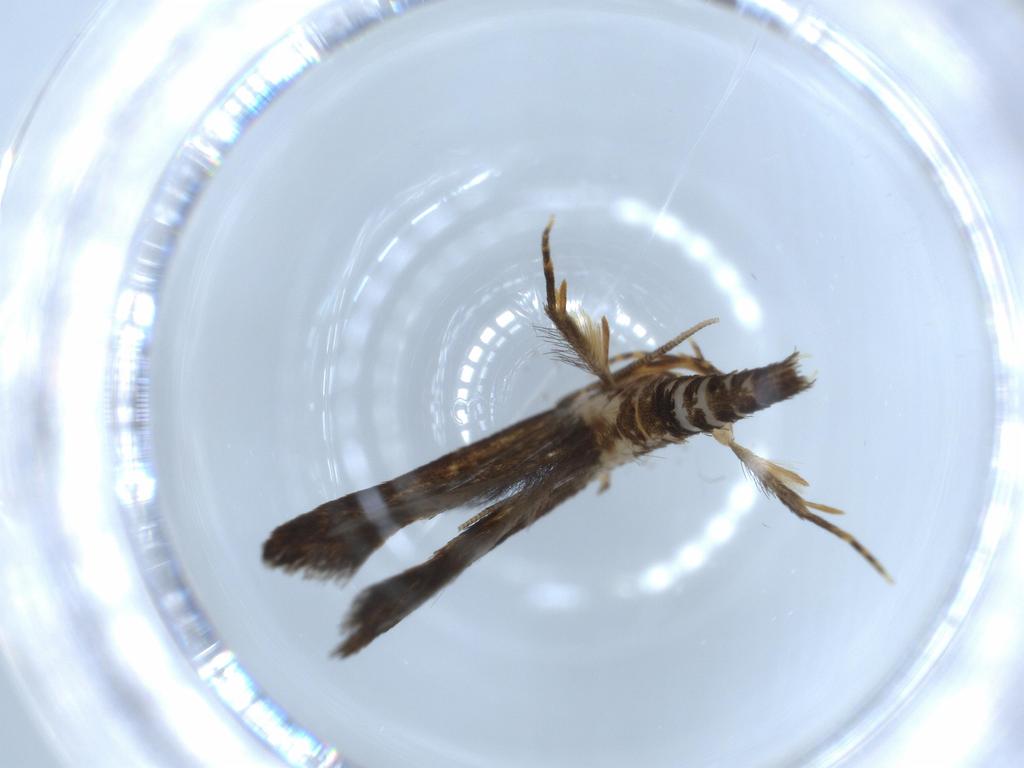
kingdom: Animalia
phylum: Arthropoda
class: Insecta
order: Lepidoptera
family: Tineidae
